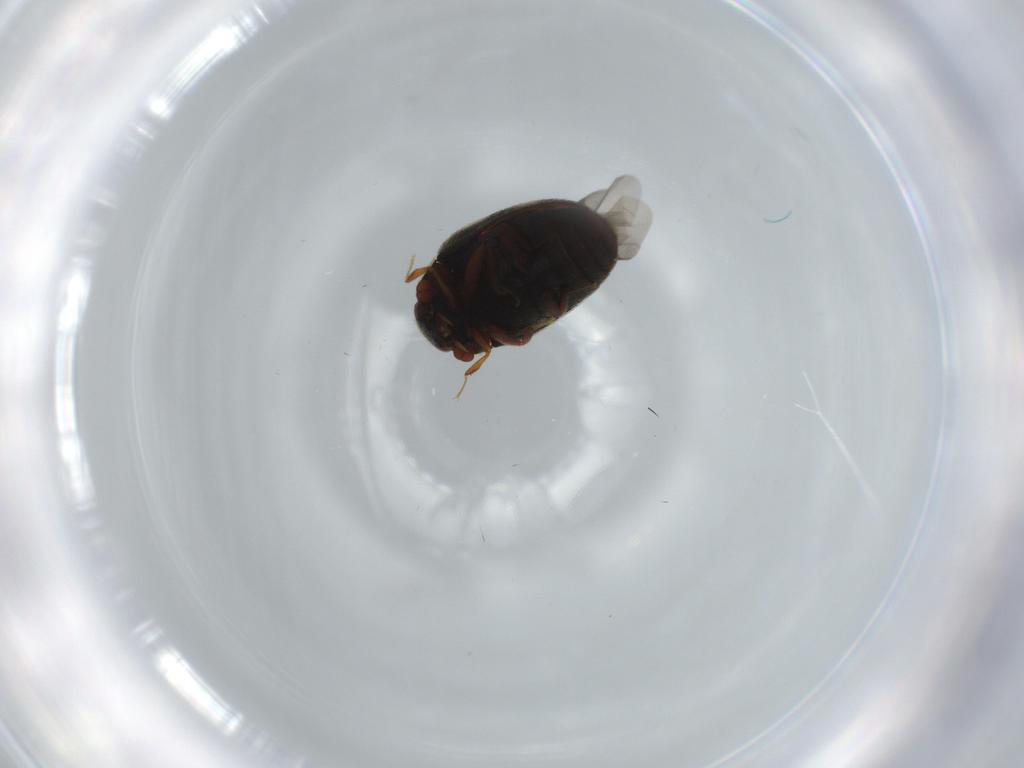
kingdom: Animalia
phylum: Arthropoda
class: Insecta
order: Coleoptera
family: Dermestidae
